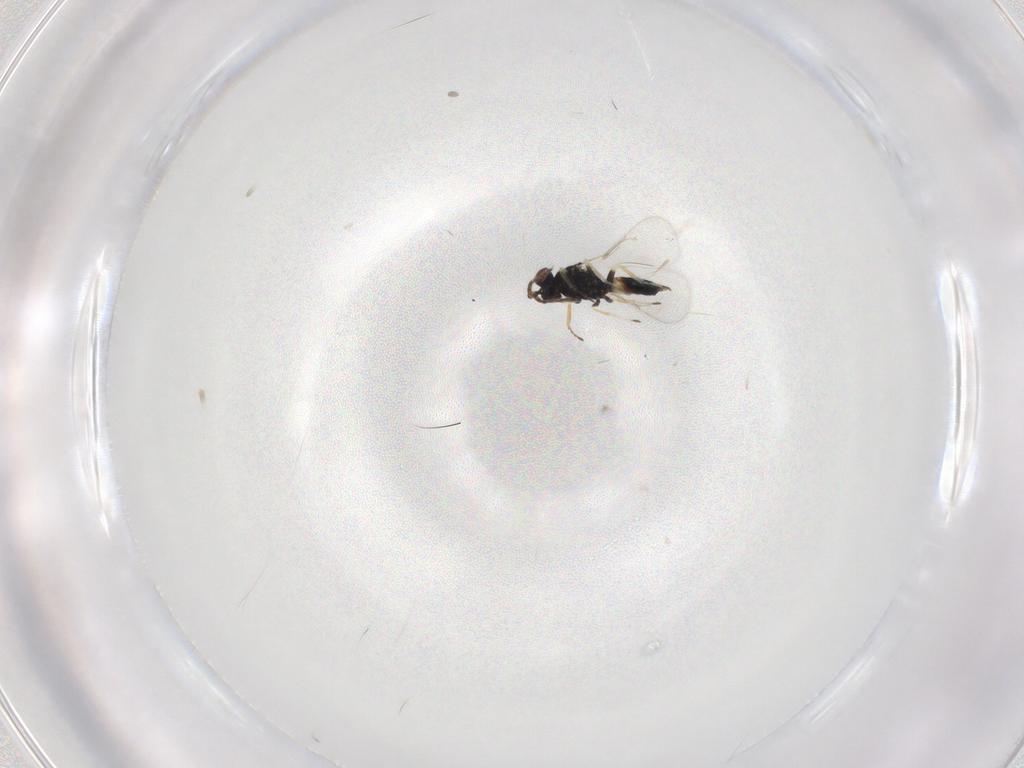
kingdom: Animalia
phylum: Arthropoda
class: Insecta
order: Hymenoptera
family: Eulophidae
